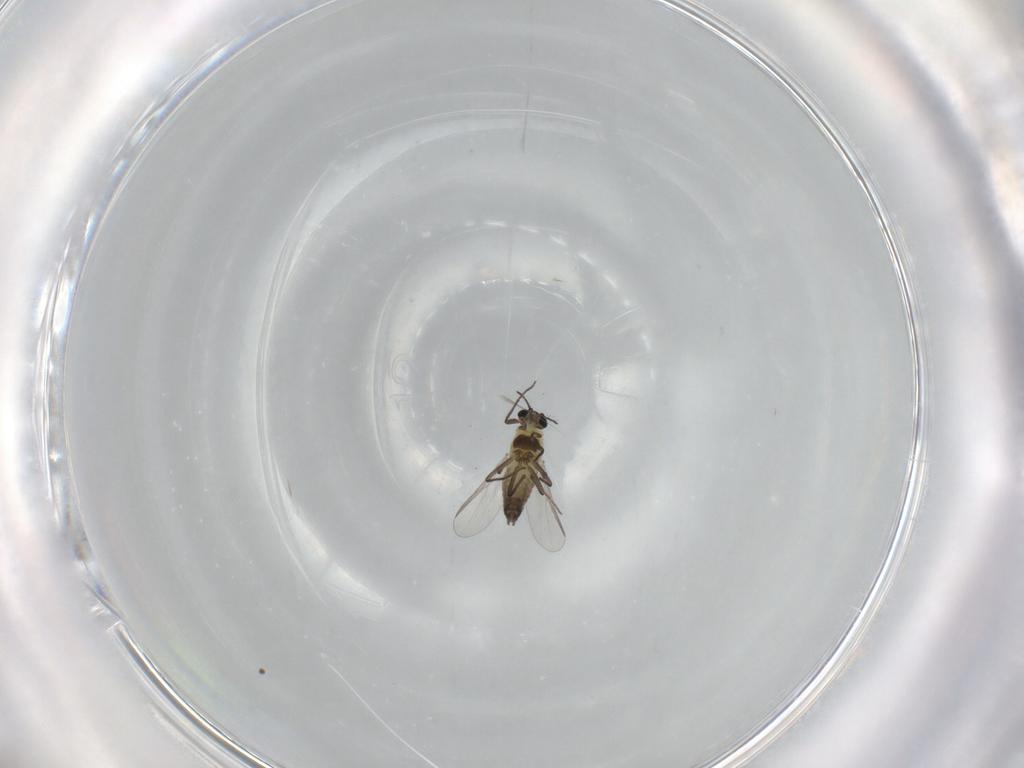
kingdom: Animalia
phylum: Arthropoda
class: Insecta
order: Diptera
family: Chironomidae
